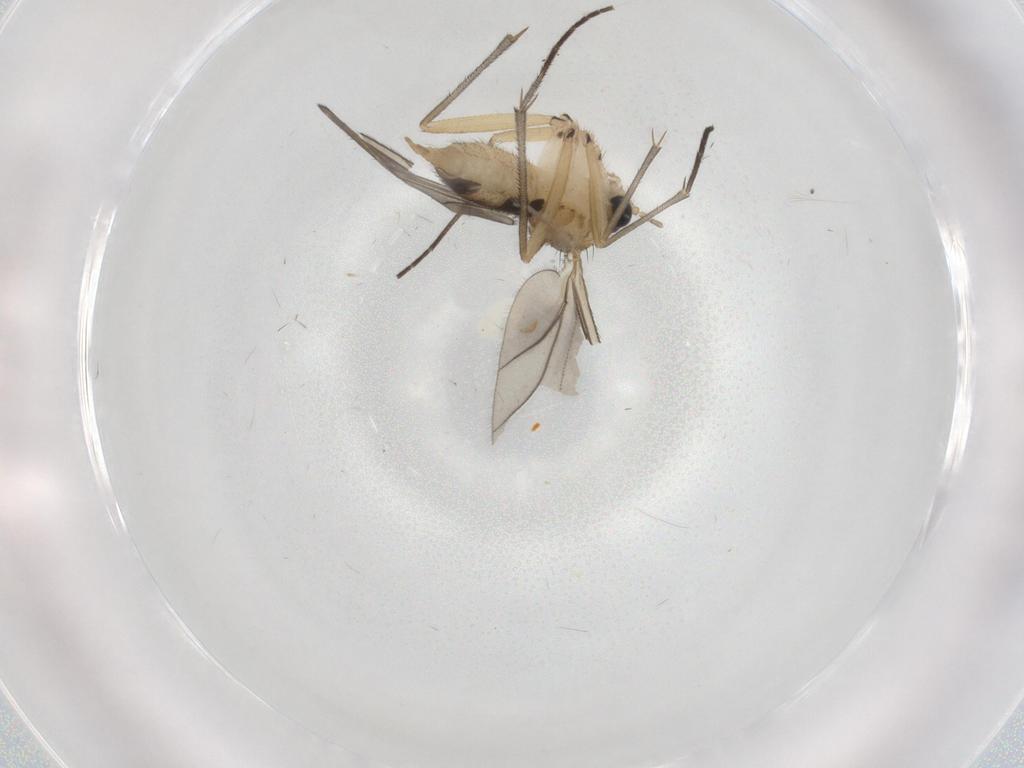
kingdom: Animalia
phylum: Arthropoda
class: Insecta
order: Diptera
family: Sciaridae
